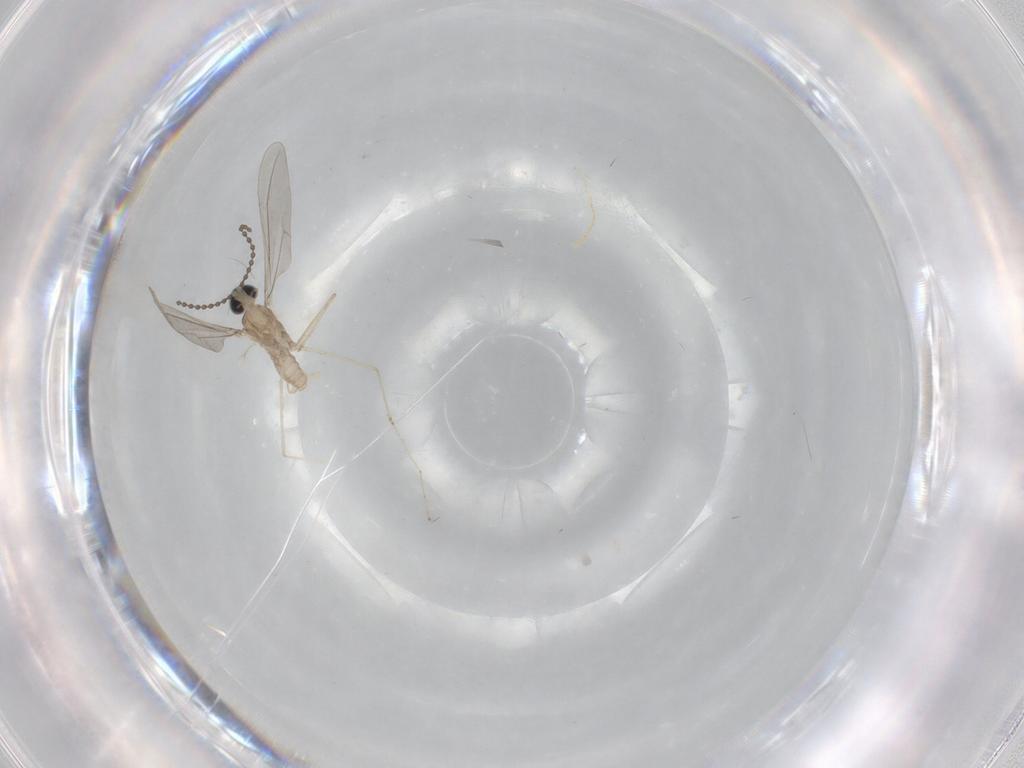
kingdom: Animalia
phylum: Arthropoda
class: Insecta
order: Diptera
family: Cecidomyiidae
